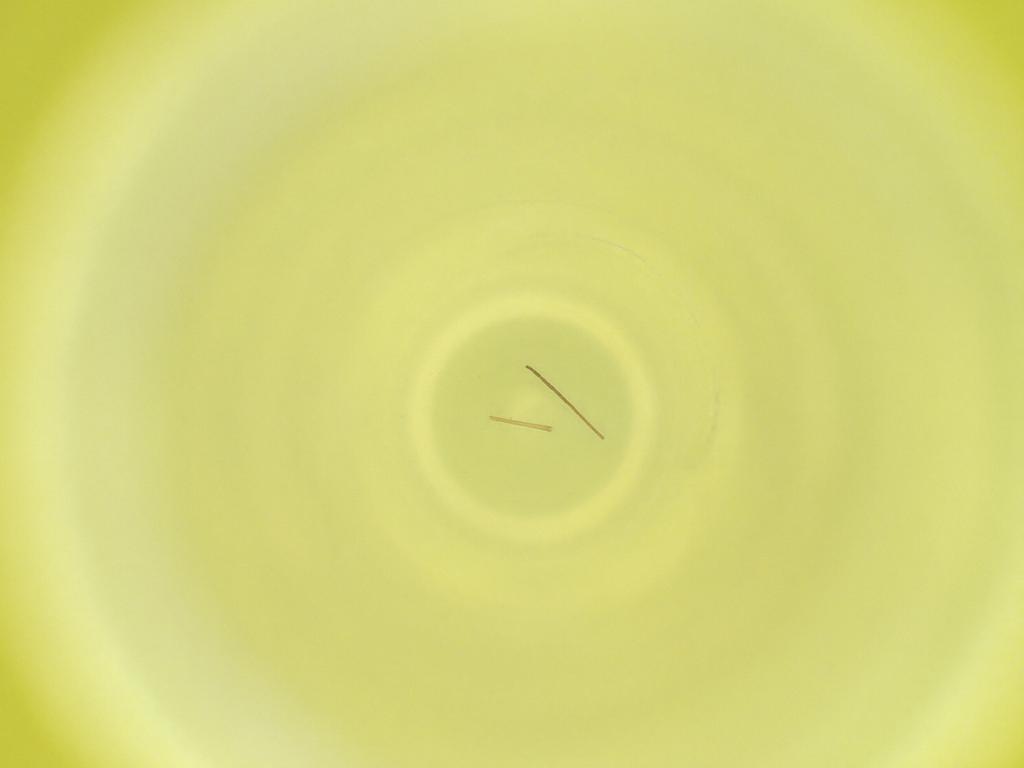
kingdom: Animalia
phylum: Arthropoda
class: Insecta
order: Diptera
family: Cecidomyiidae
